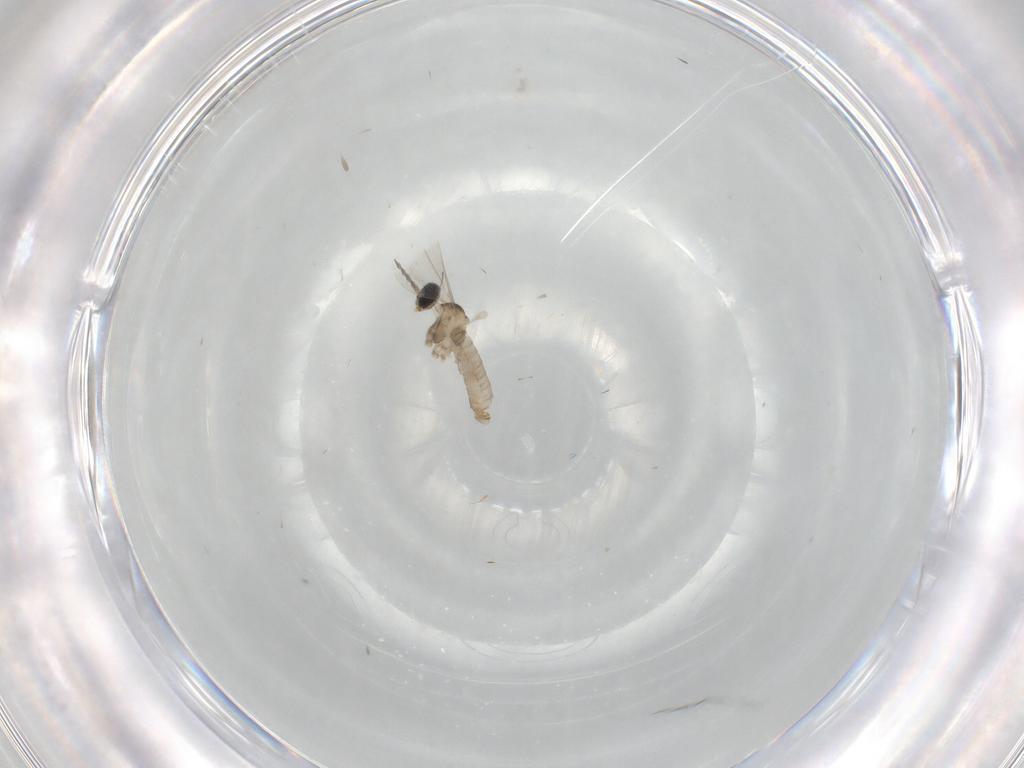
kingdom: Animalia
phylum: Arthropoda
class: Insecta
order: Diptera
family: Cecidomyiidae
